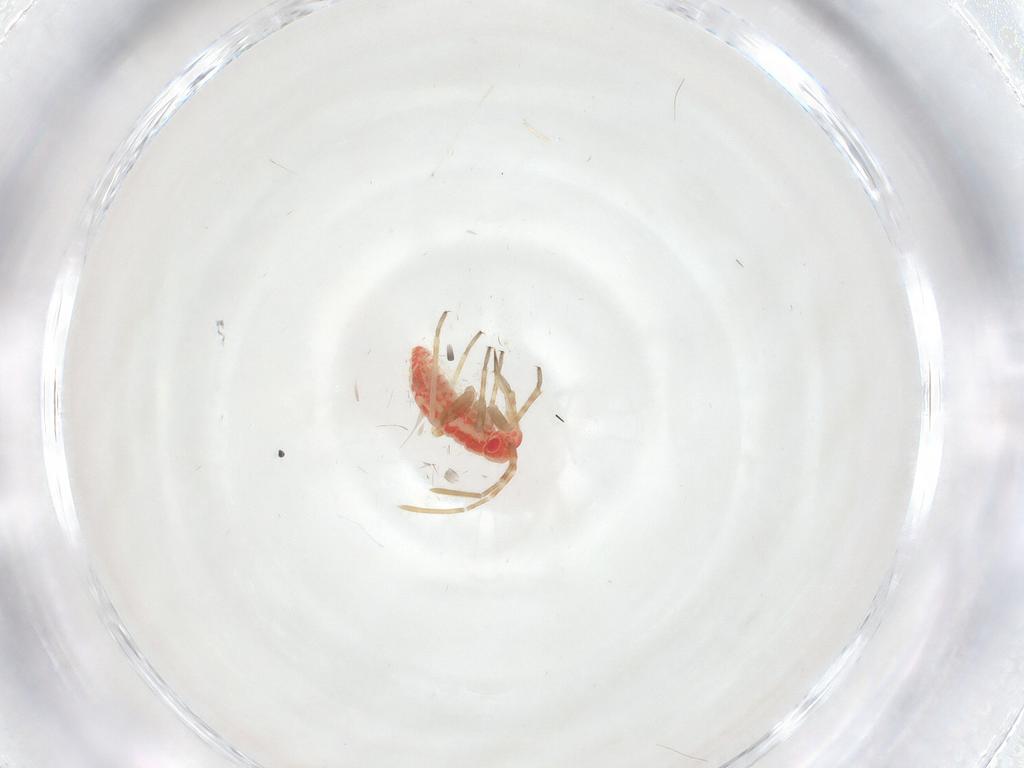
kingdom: Animalia
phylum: Arthropoda
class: Insecta
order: Hemiptera
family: Miridae
